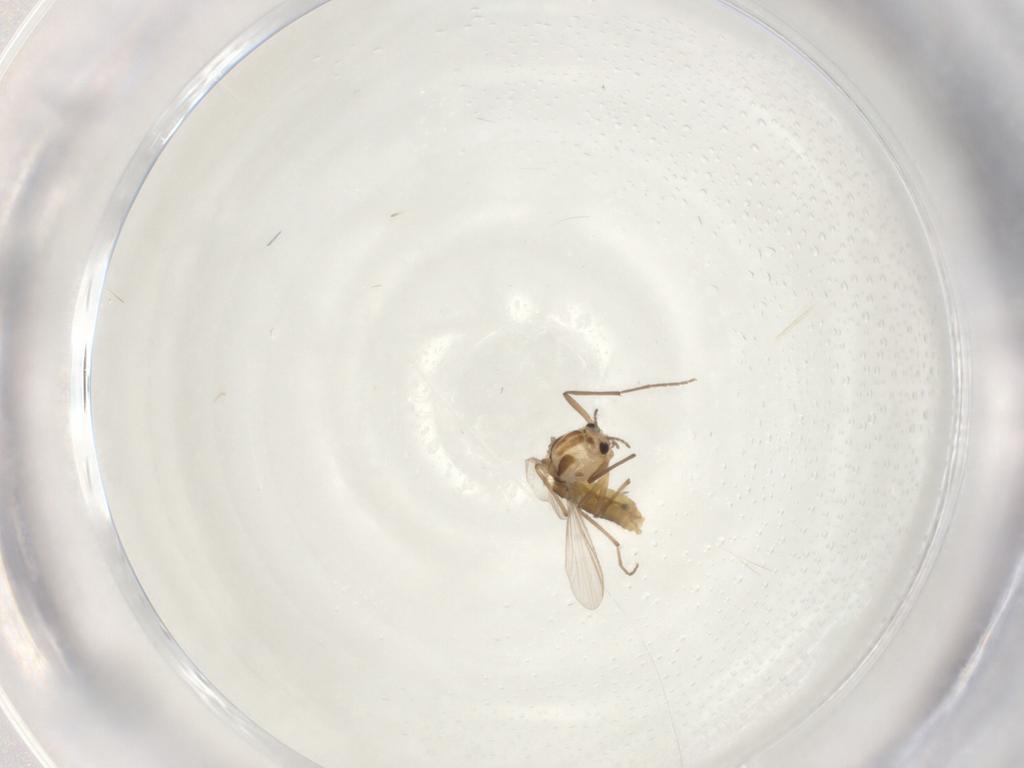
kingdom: Animalia
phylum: Arthropoda
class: Insecta
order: Diptera
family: Chironomidae
